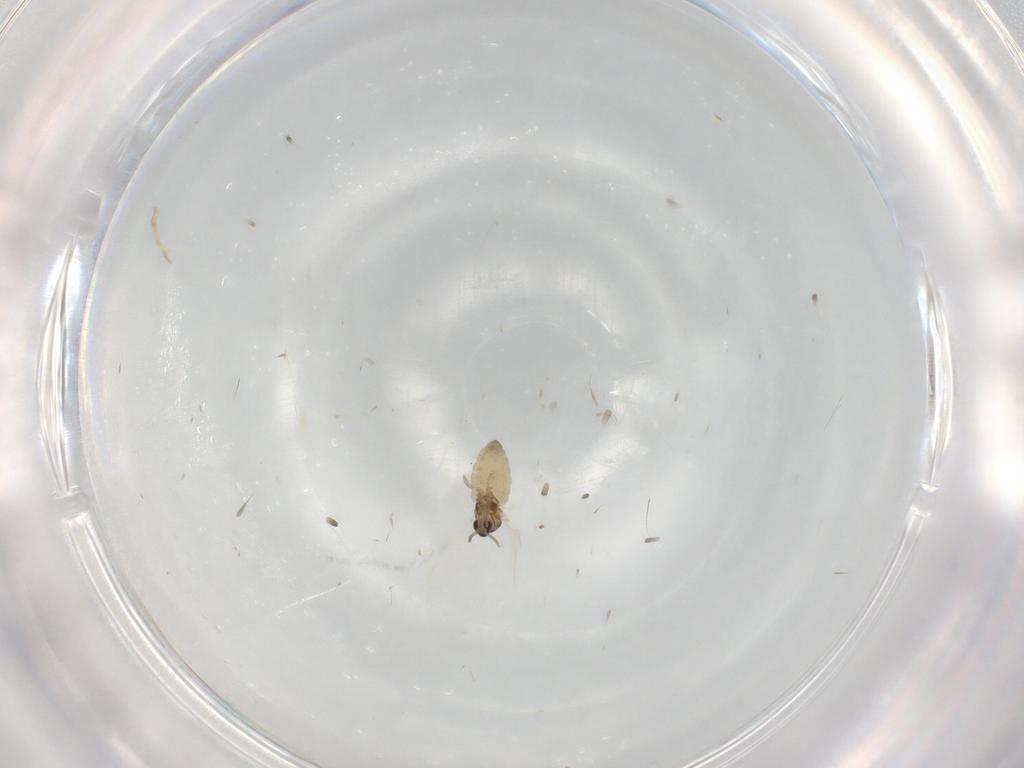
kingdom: Animalia
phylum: Arthropoda
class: Insecta
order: Diptera
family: Cecidomyiidae
